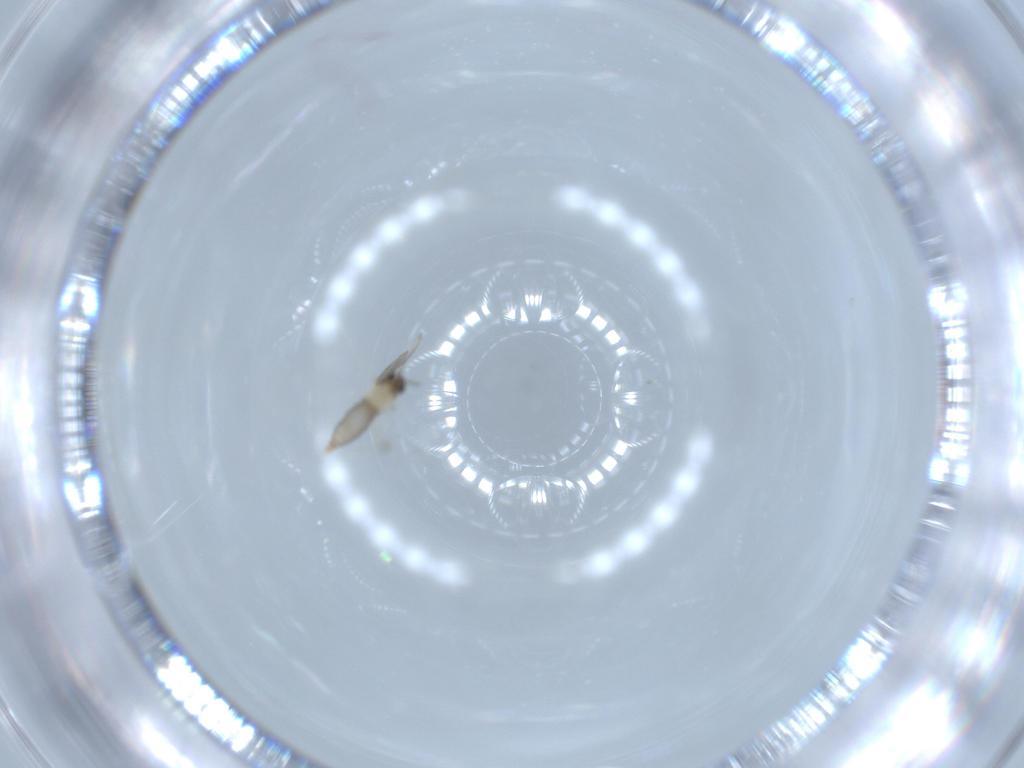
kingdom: Animalia
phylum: Arthropoda
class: Insecta
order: Diptera
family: Cecidomyiidae
